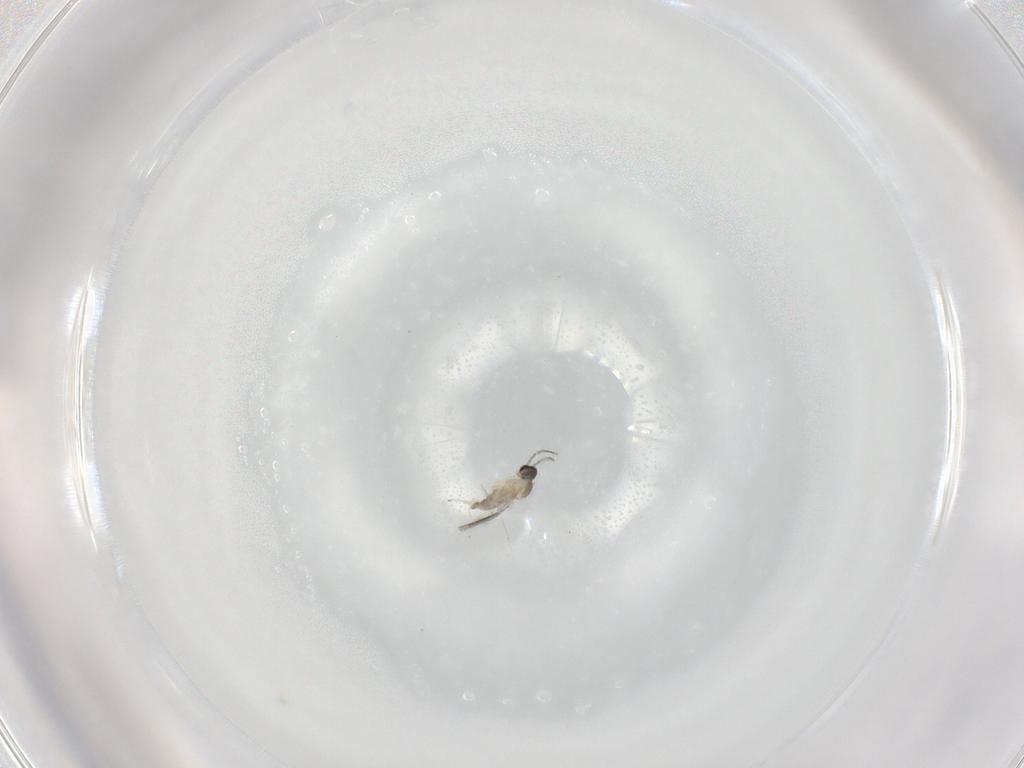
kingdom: Animalia
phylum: Arthropoda
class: Insecta
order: Diptera
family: Cecidomyiidae
